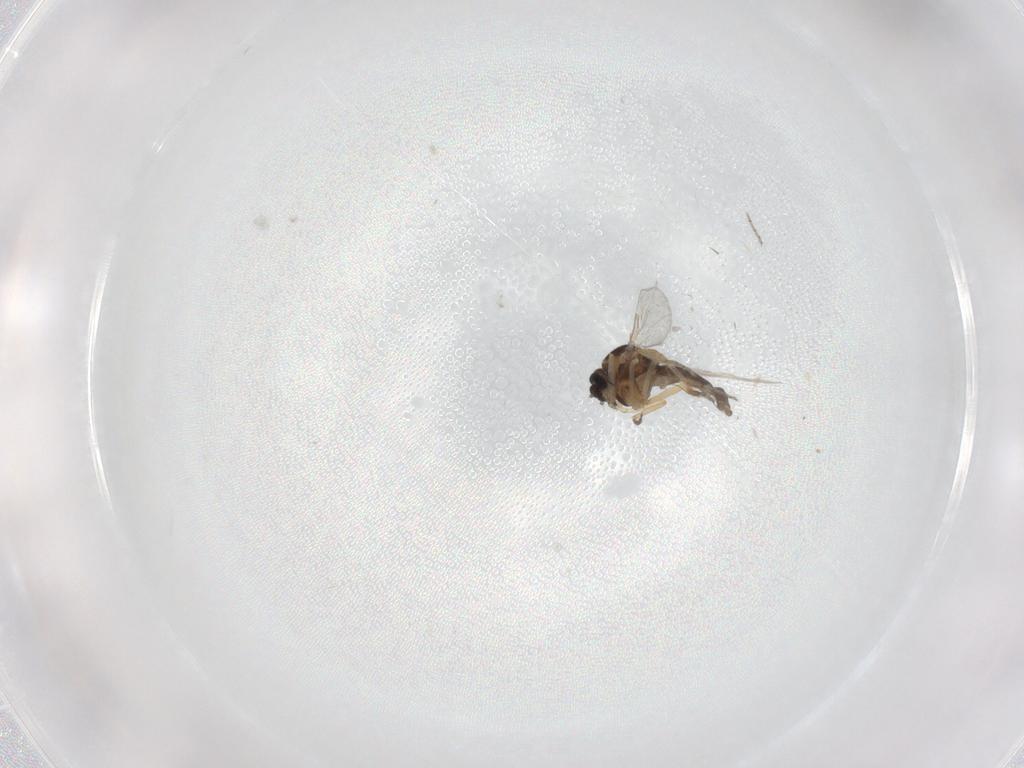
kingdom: Animalia
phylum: Arthropoda
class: Insecta
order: Diptera
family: Ceratopogonidae
